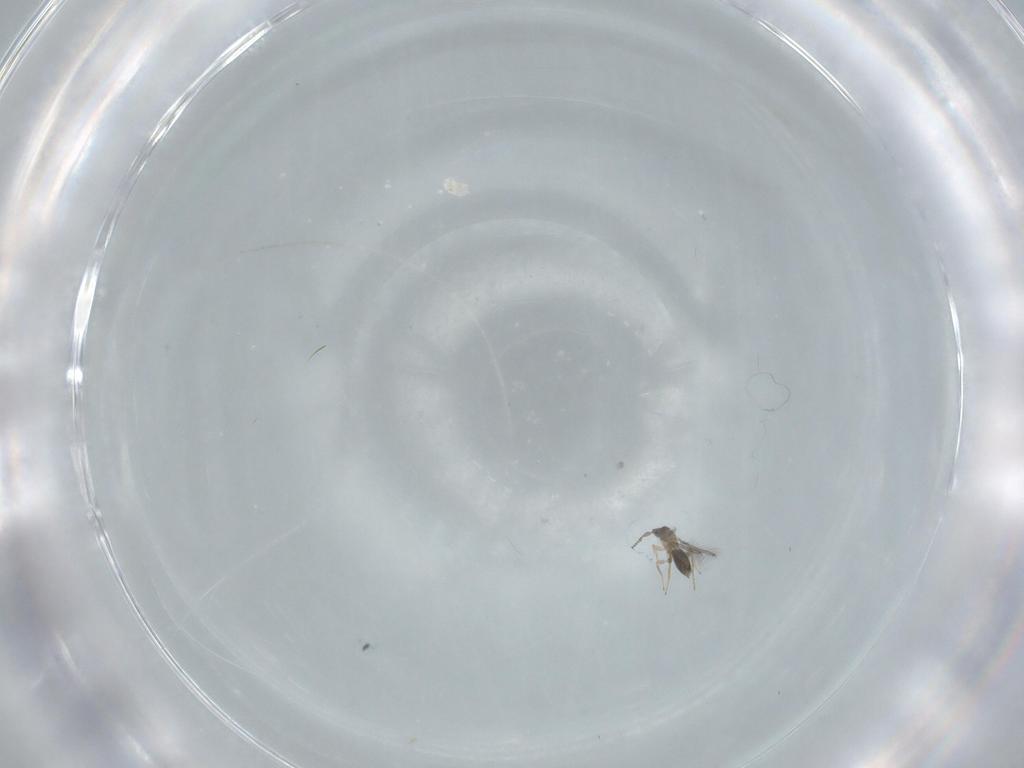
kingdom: Animalia
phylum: Arthropoda
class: Insecta
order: Hymenoptera
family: Mymaridae
